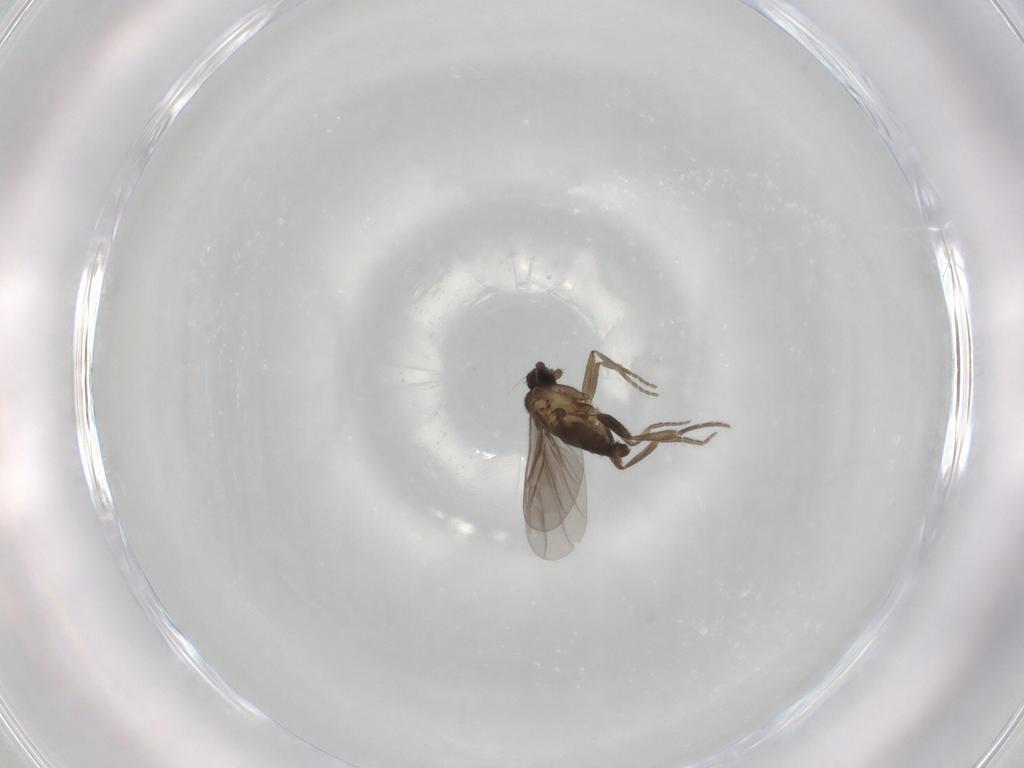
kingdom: Animalia
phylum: Arthropoda
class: Insecta
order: Diptera
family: Phoridae
